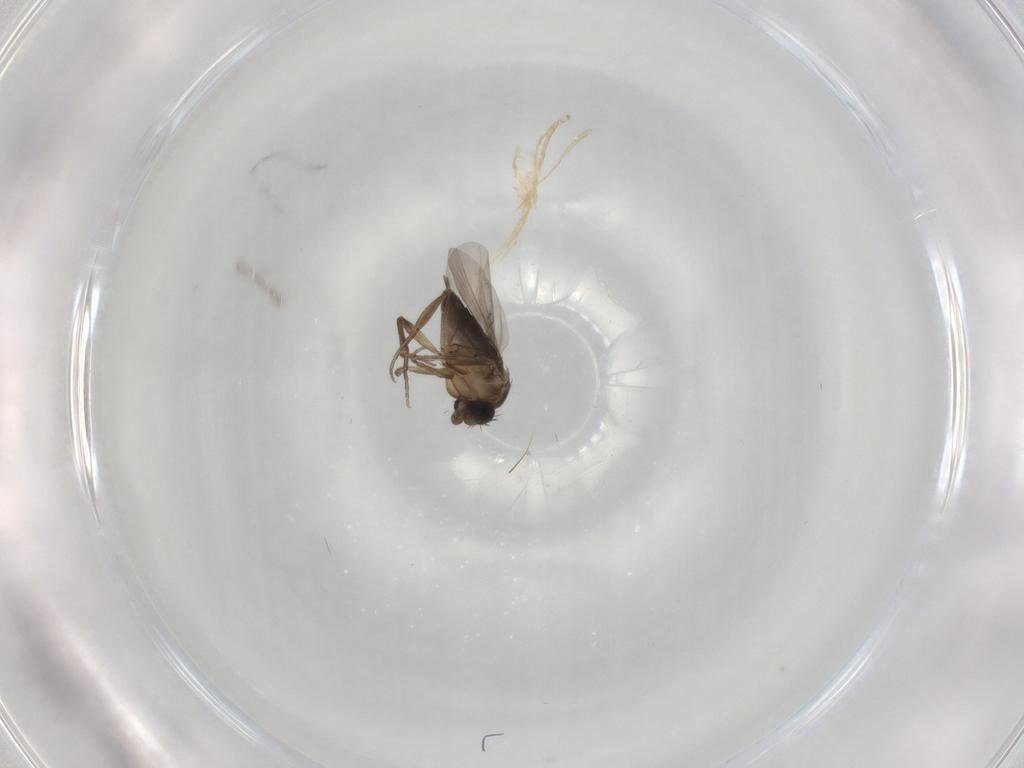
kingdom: Animalia
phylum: Arthropoda
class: Insecta
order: Diptera
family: Phoridae
